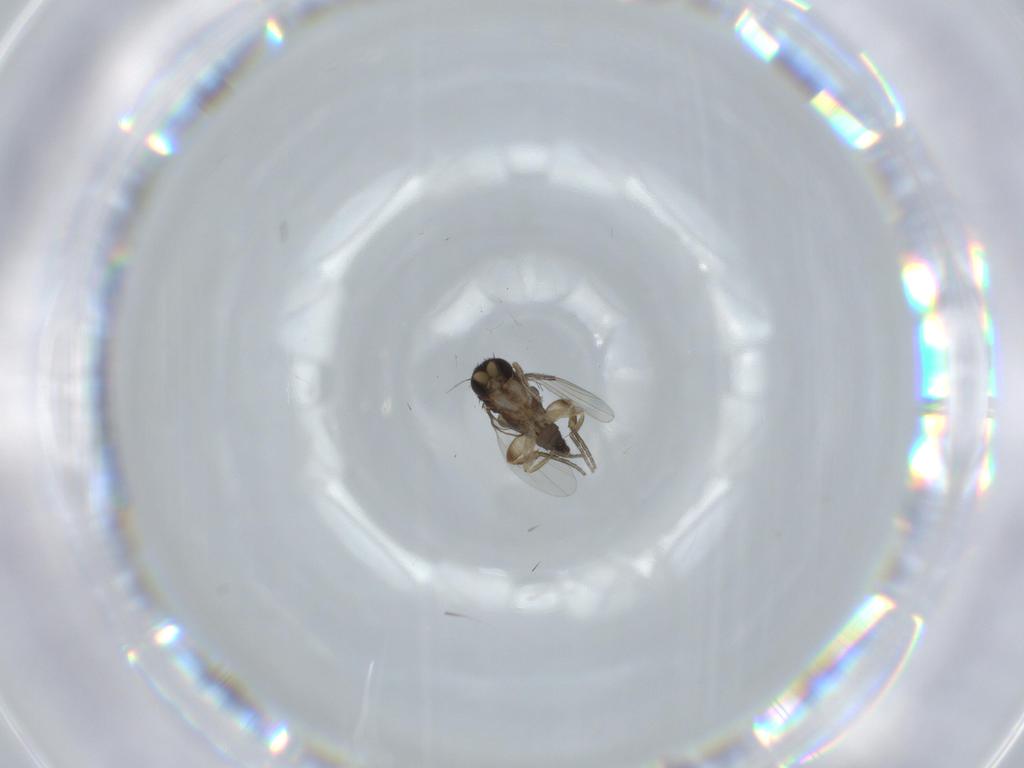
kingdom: Animalia
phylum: Arthropoda
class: Insecta
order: Diptera
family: Phoridae
